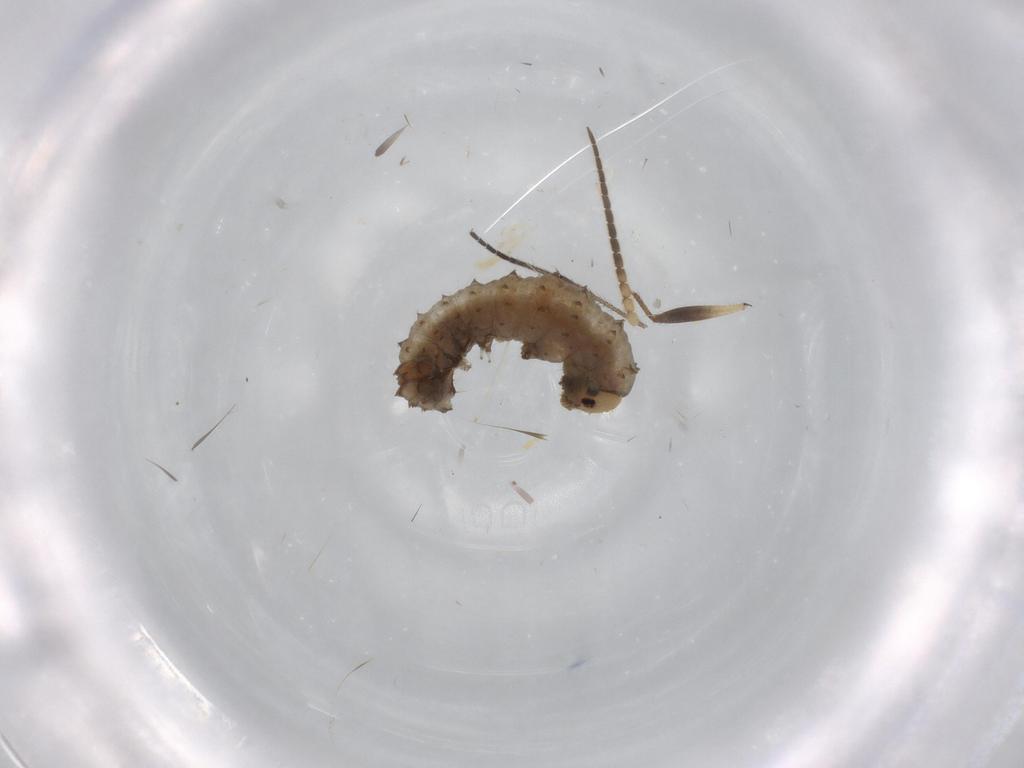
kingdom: Animalia
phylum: Arthropoda
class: Insecta
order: Diptera
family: Mycetophilidae
